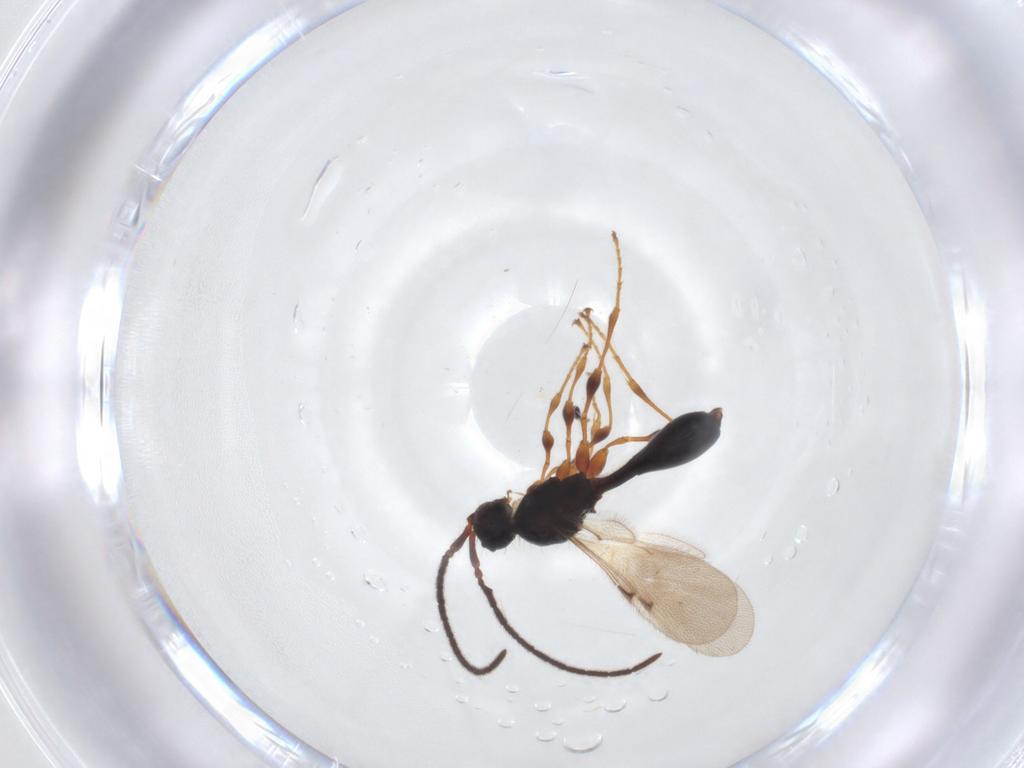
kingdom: Animalia
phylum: Arthropoda
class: Insecta
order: Hymenoptera
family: Diapriidae
